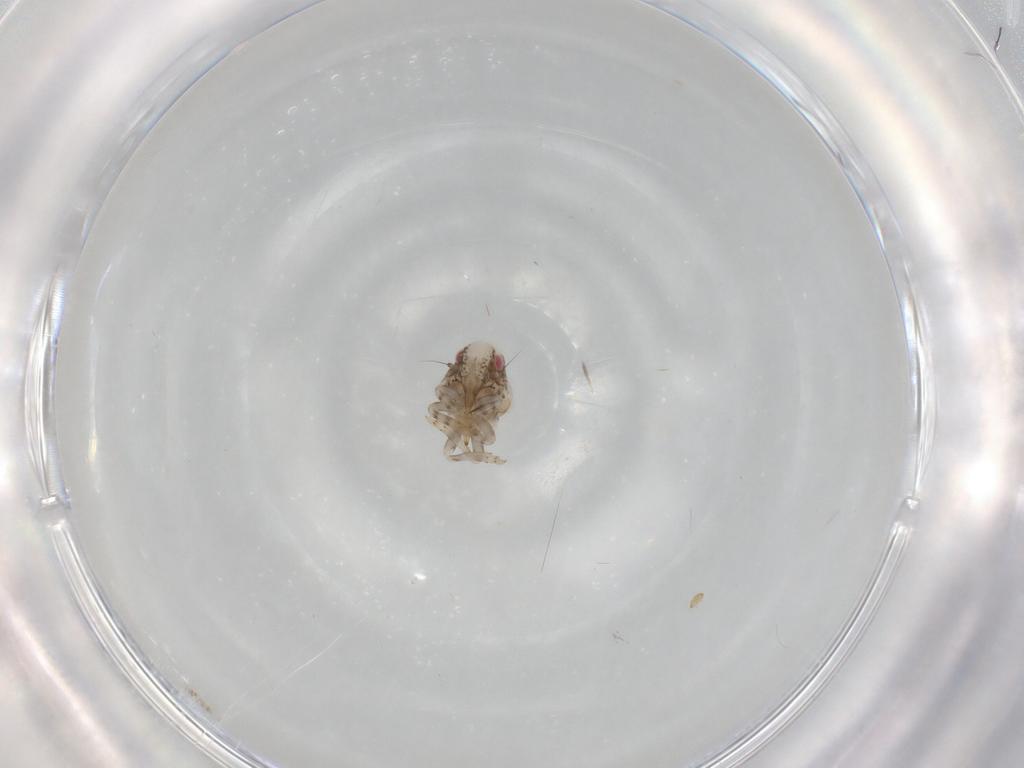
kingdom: Animalia
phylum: Arthropoda
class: Insecta
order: Hemiptera
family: Acanaloniidae
